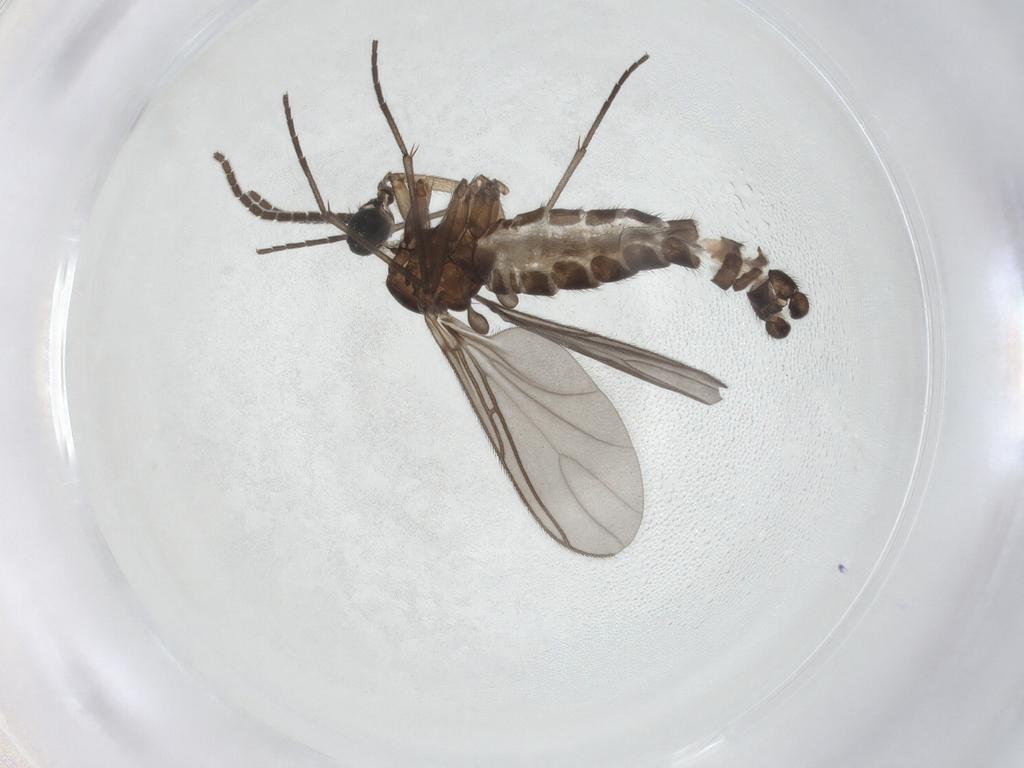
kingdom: Animalia
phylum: Arthropoda
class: Insecta
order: Diptera
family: Sciaridae
